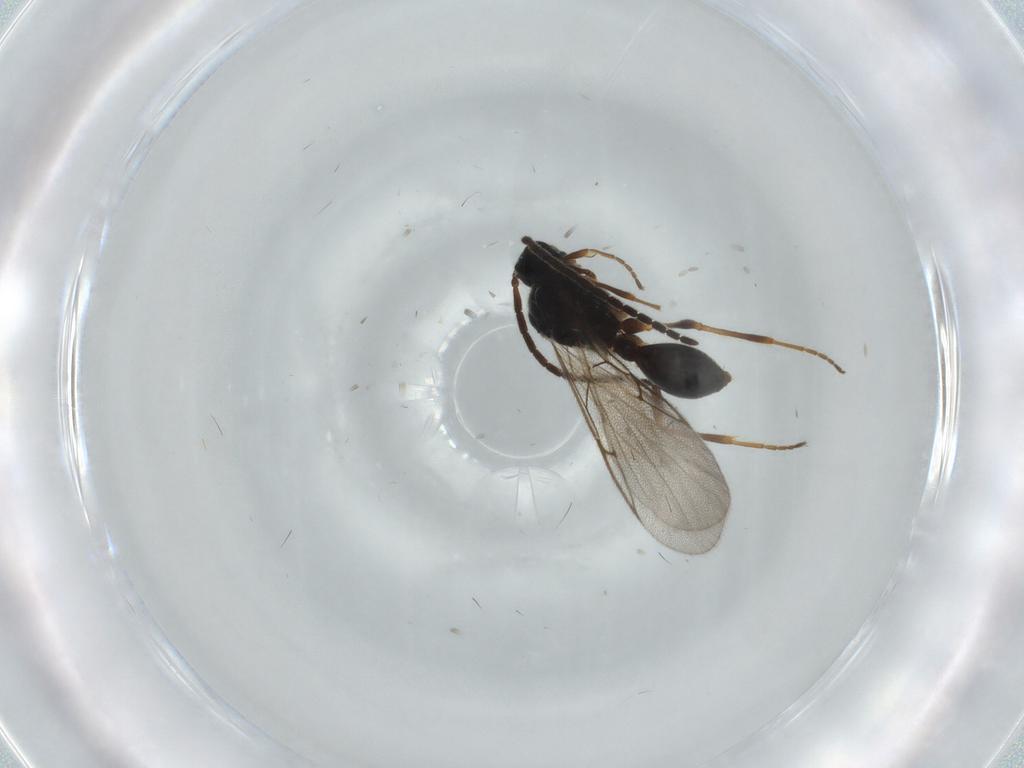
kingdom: Animalia
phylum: Arthropoda
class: Insecta
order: Hymenoptera
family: Diapriidae
